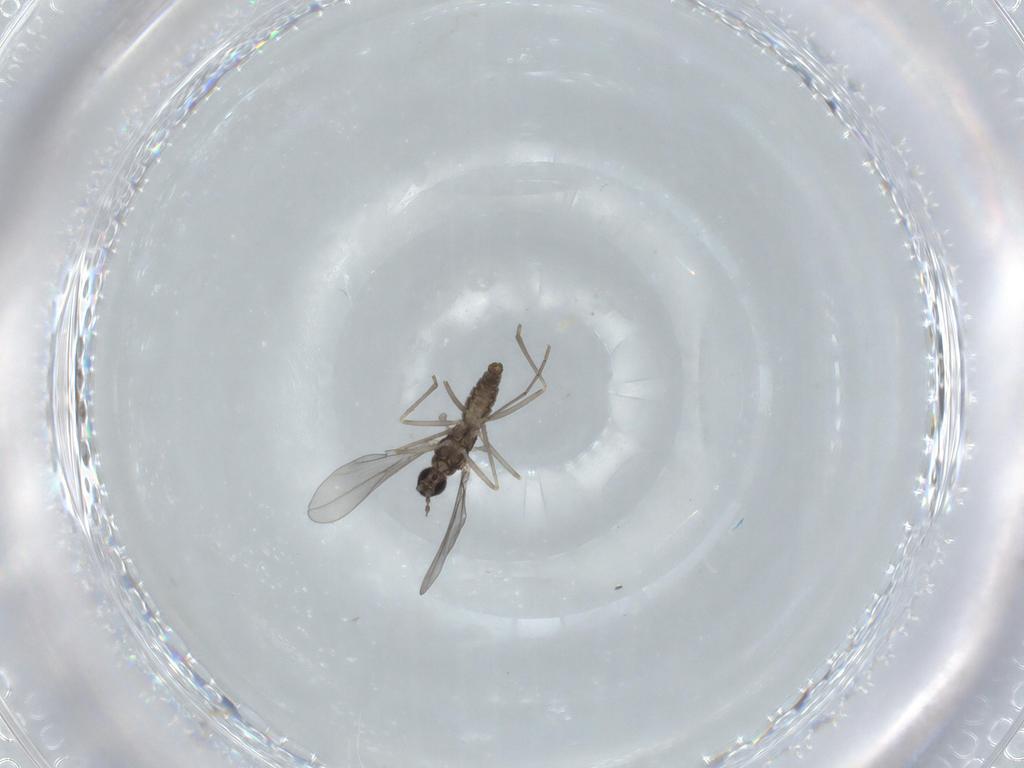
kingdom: Animalia
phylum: Arthropoda
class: Insecta
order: Diptera
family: Cecidomyiidae
